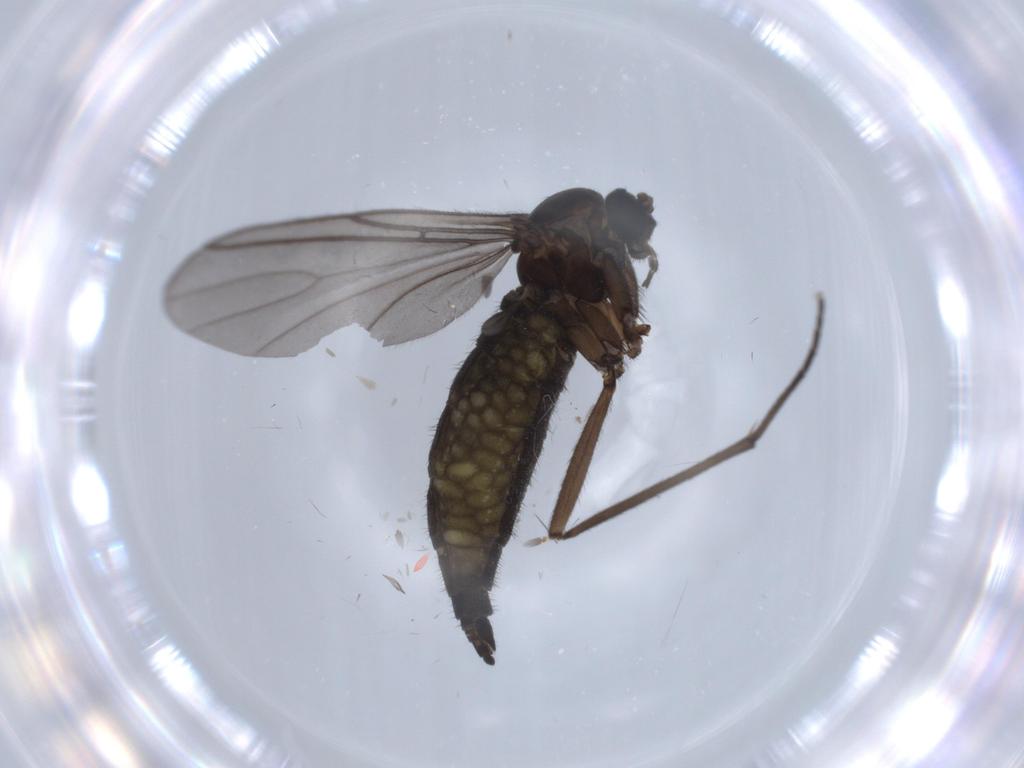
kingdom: Animalia
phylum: Arthropoda
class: Insecta
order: Diptera
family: Sciaridae
